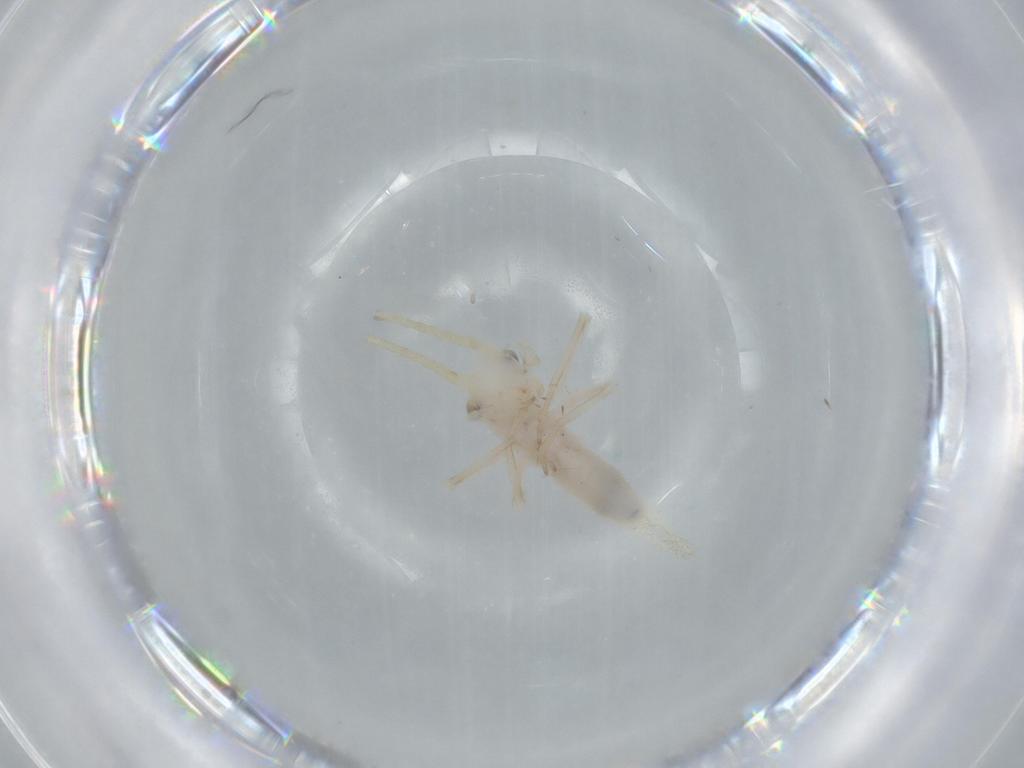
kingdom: Animalia
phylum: Arthropoda
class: Insecta
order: Orthoptera
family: Trigonidiidae
